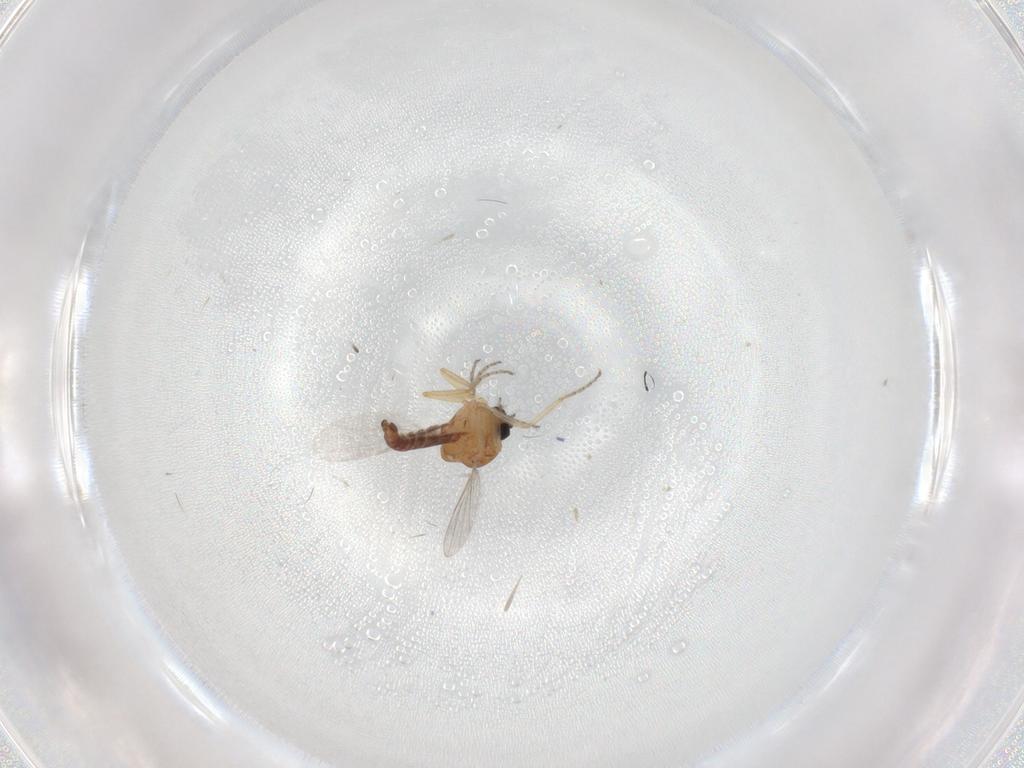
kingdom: Animalia
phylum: Arthropoda
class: Insecta
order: Diptera
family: Ceratopogonidae
